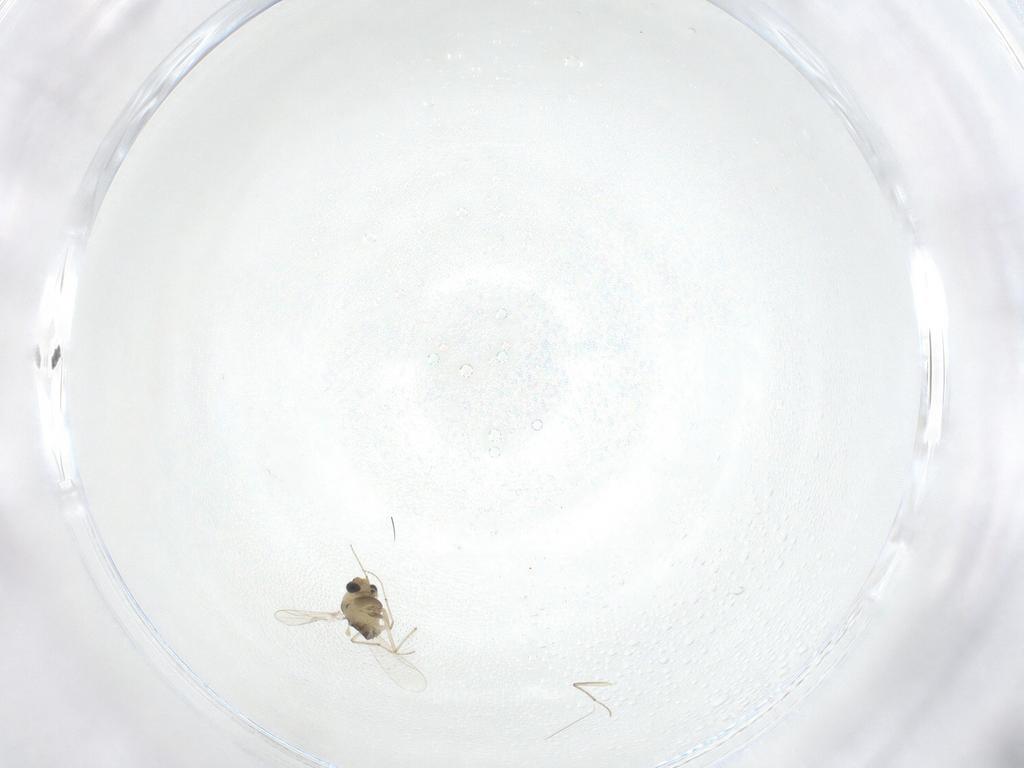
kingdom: Animalia
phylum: Arthropoda
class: Insecta
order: Diptera
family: Chironomidae
